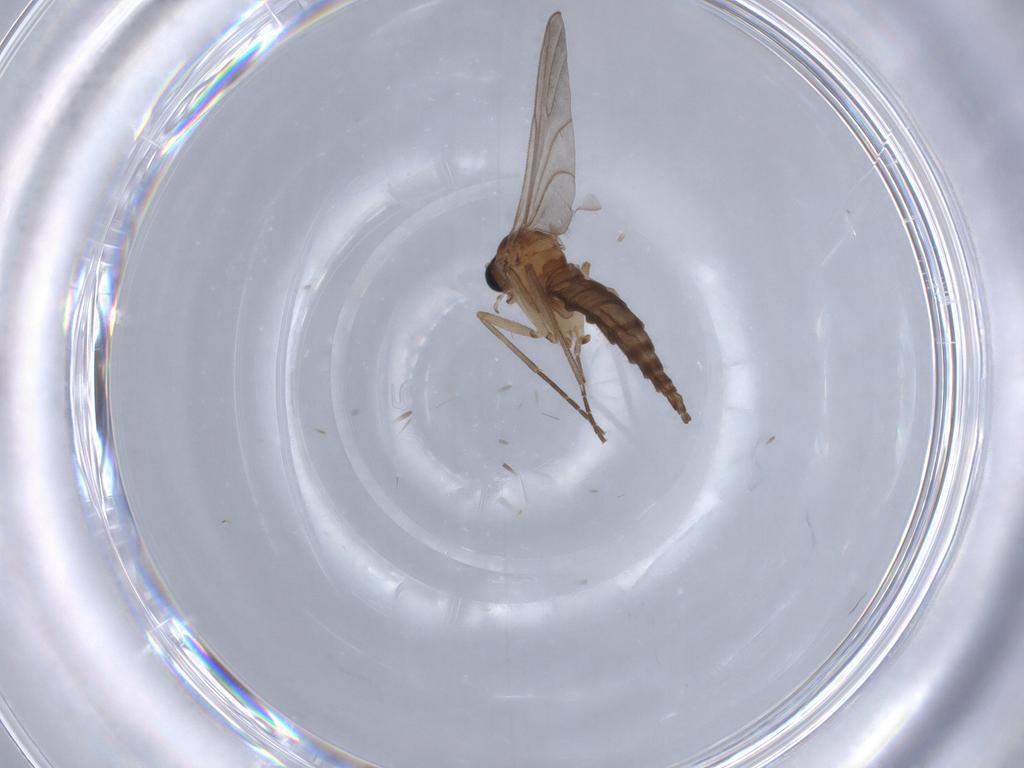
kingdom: Animalia
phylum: Arthropoda
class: Insecta
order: Diptera
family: Sciaridae
